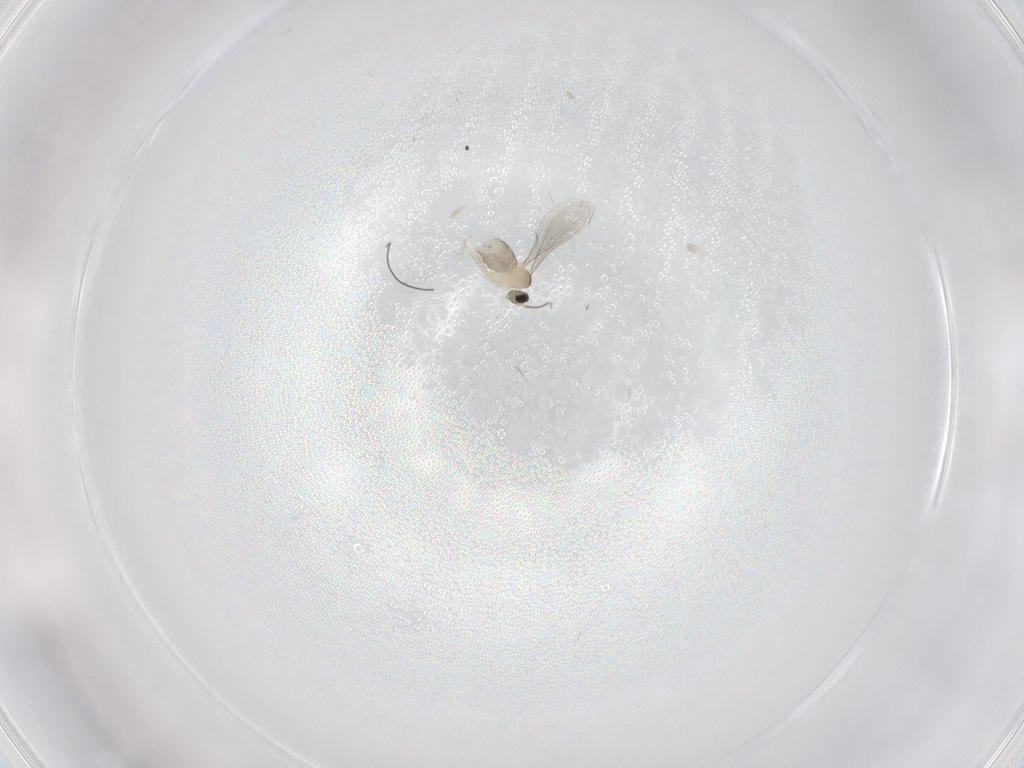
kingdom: Animalia
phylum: Arthropoda
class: Insecta
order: Diptera
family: Cecidomyiidae
